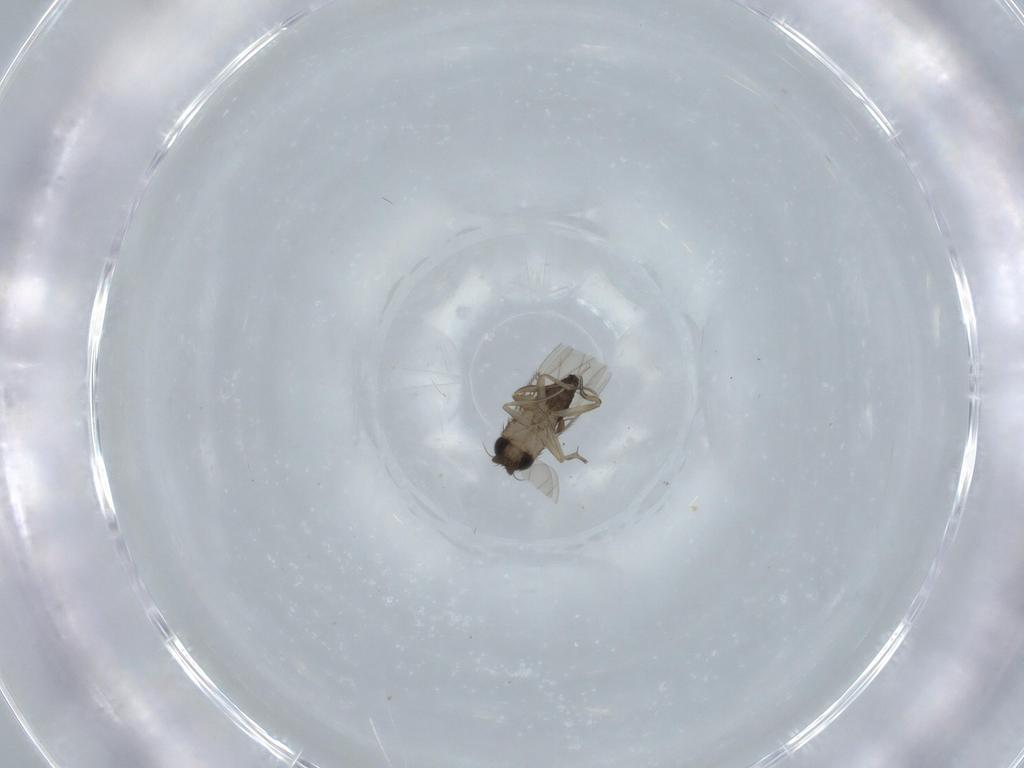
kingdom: Animalia
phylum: Arthropoda
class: Insecta
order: Diptera
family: Phoridae
